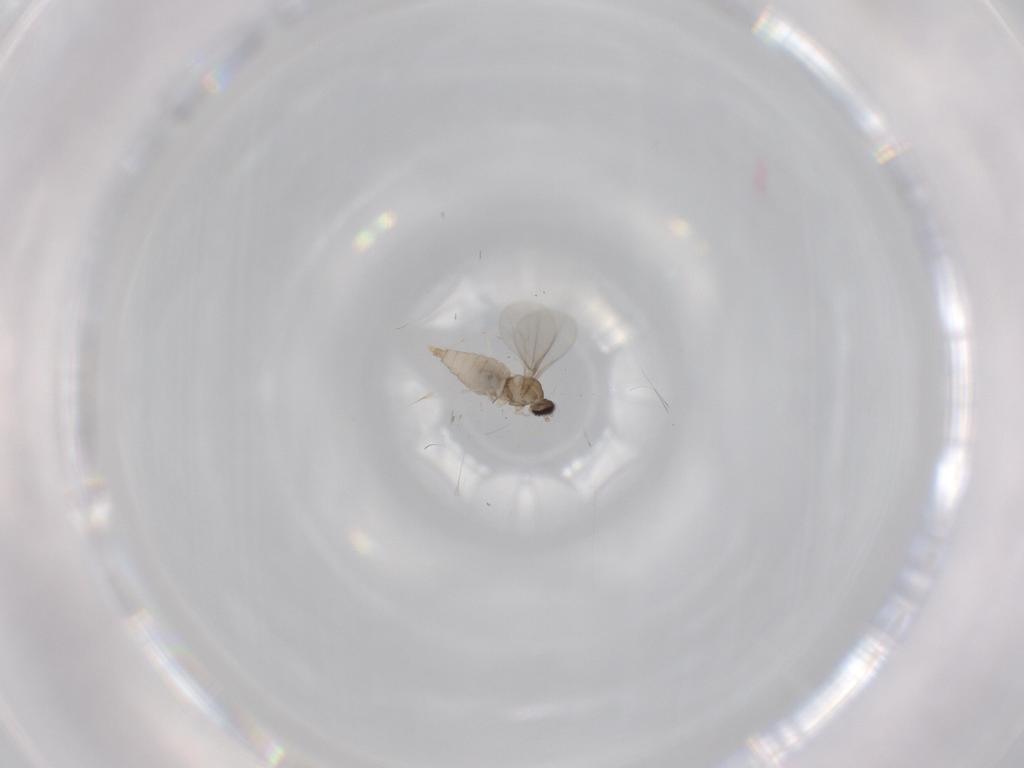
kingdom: Animalia
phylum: Arthropoda
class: Insecta
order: Diptera
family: Cecidomyiidae
